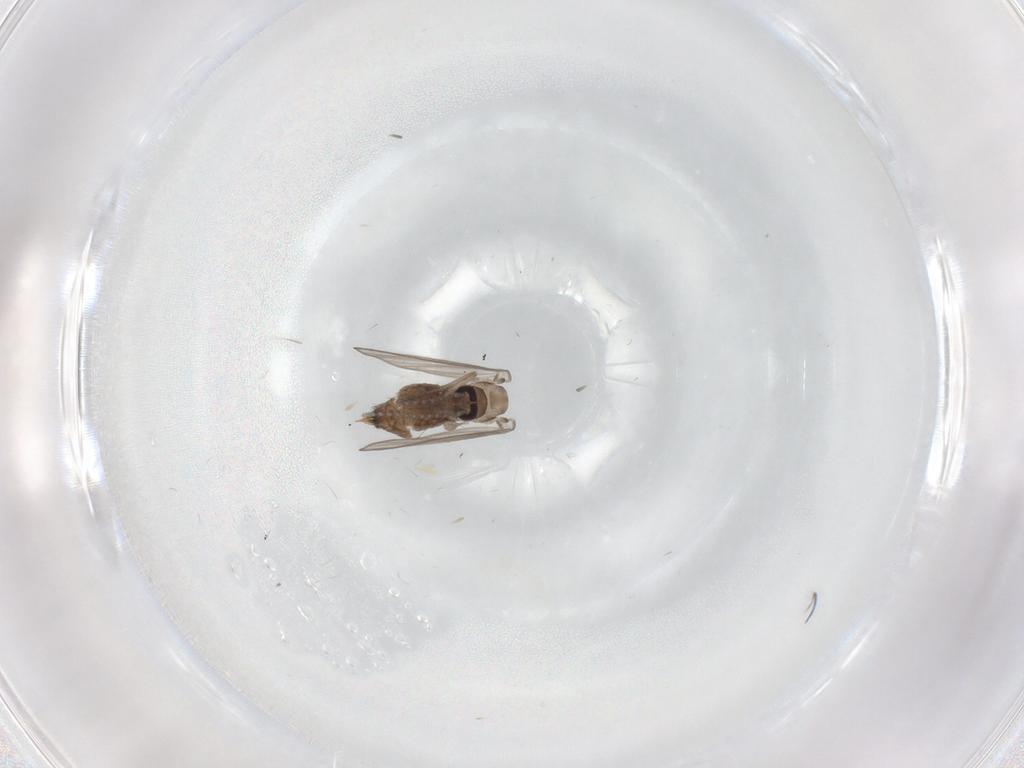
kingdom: Animalia
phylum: Arthropoda
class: Insecta
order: Diptera
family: Psychodidae
